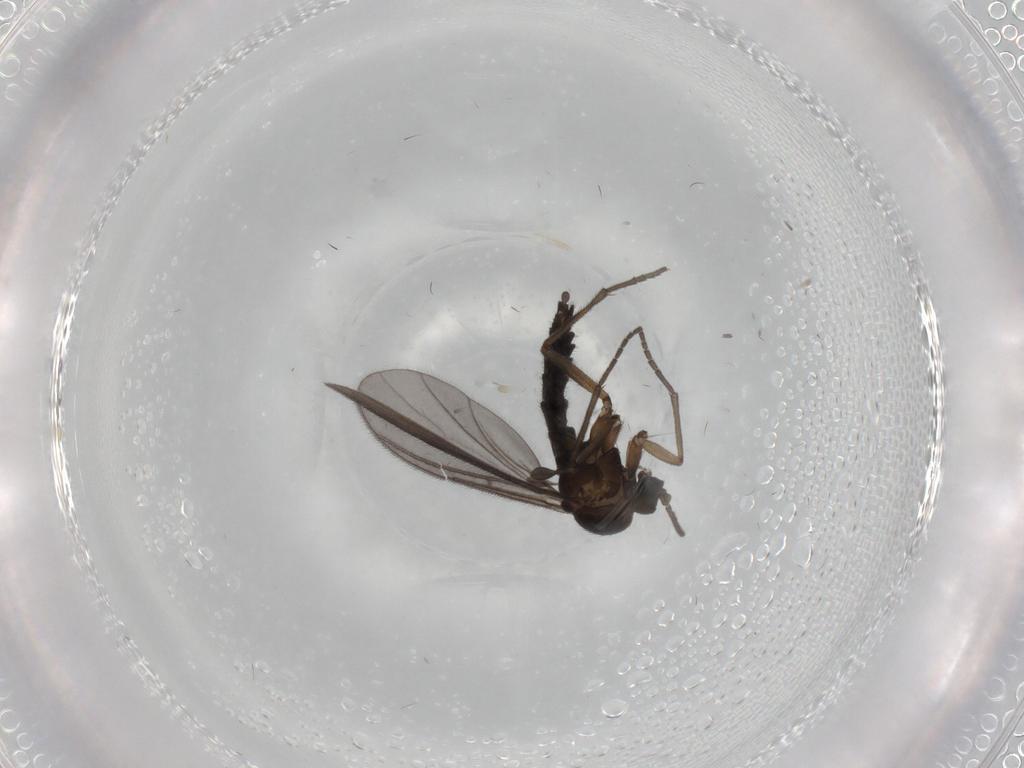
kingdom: Animalia
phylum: Arthropoda
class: Insecta
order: Diptera
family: Sciaridae
